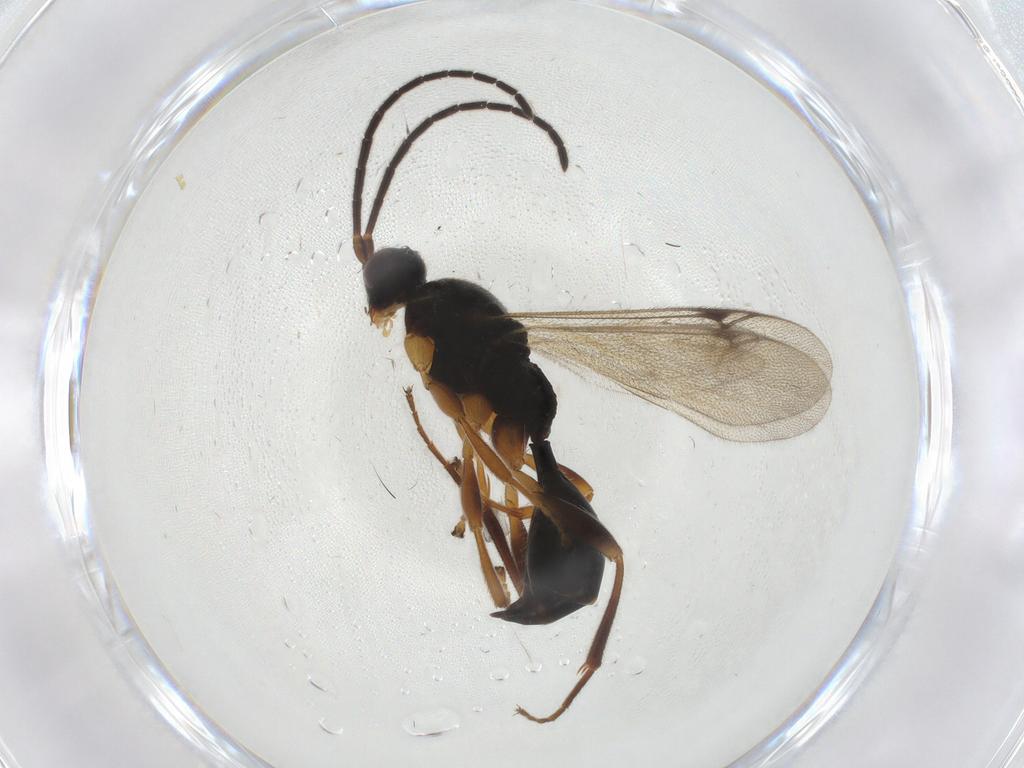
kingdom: Animalia
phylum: Arthropoda
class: Insecta
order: Hymenoptera
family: Proctotrupidae
